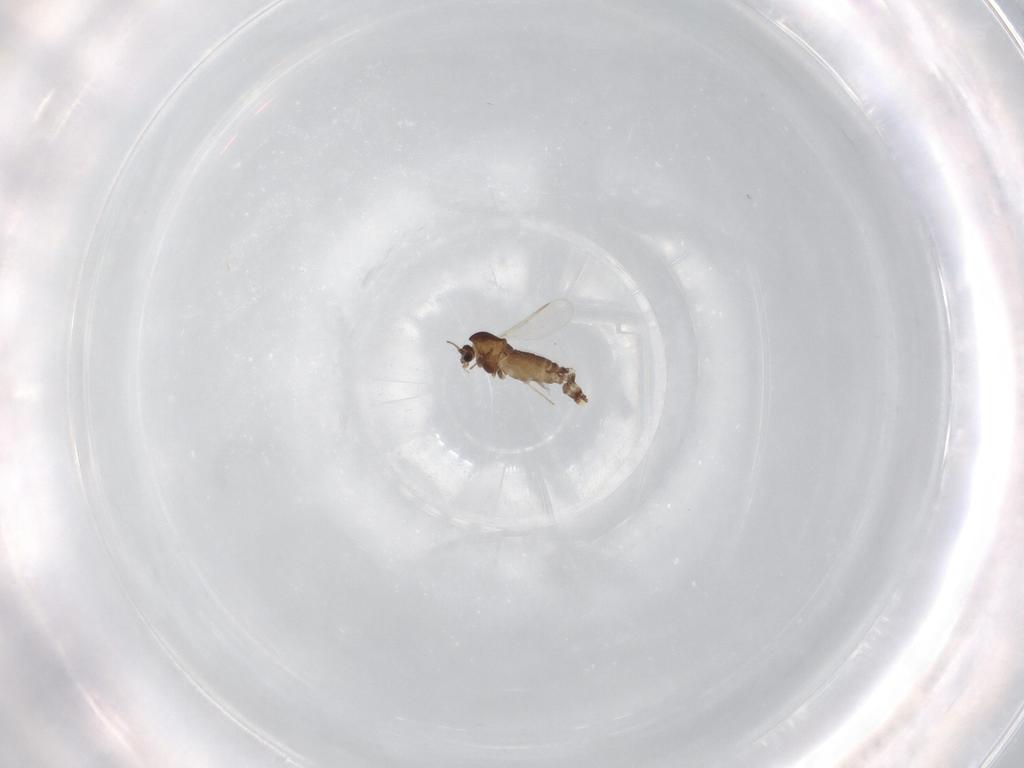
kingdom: Animalia
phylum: Arthropoda
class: Insecta
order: Diptera
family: Chironomidae
